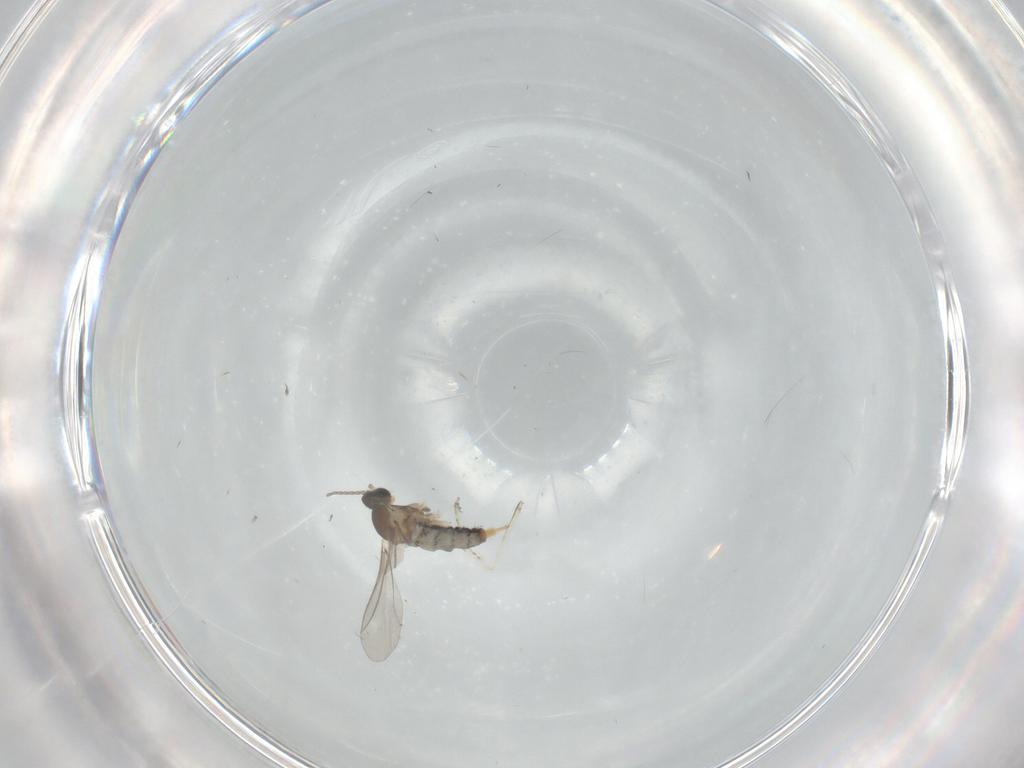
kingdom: Animalia
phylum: Arthropoda
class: Insecta
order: Diptera
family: Cecidomyiidae
